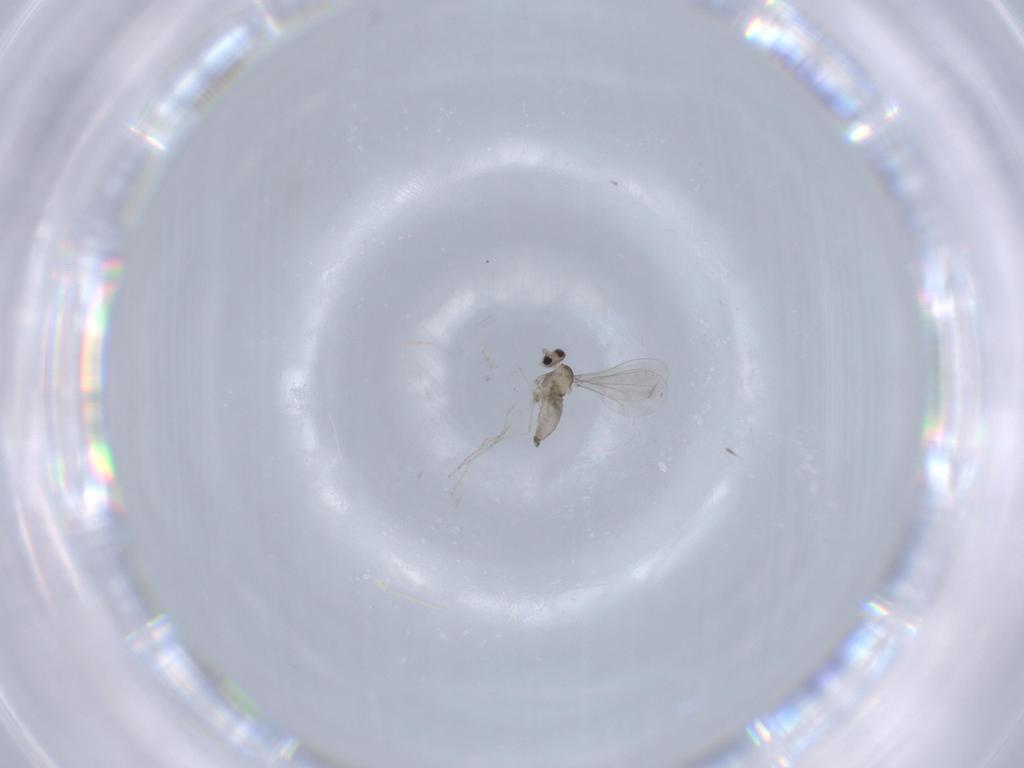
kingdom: Animalia
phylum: Arthropoda
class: Insecta
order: Diptera
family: Cecidomyiidae
